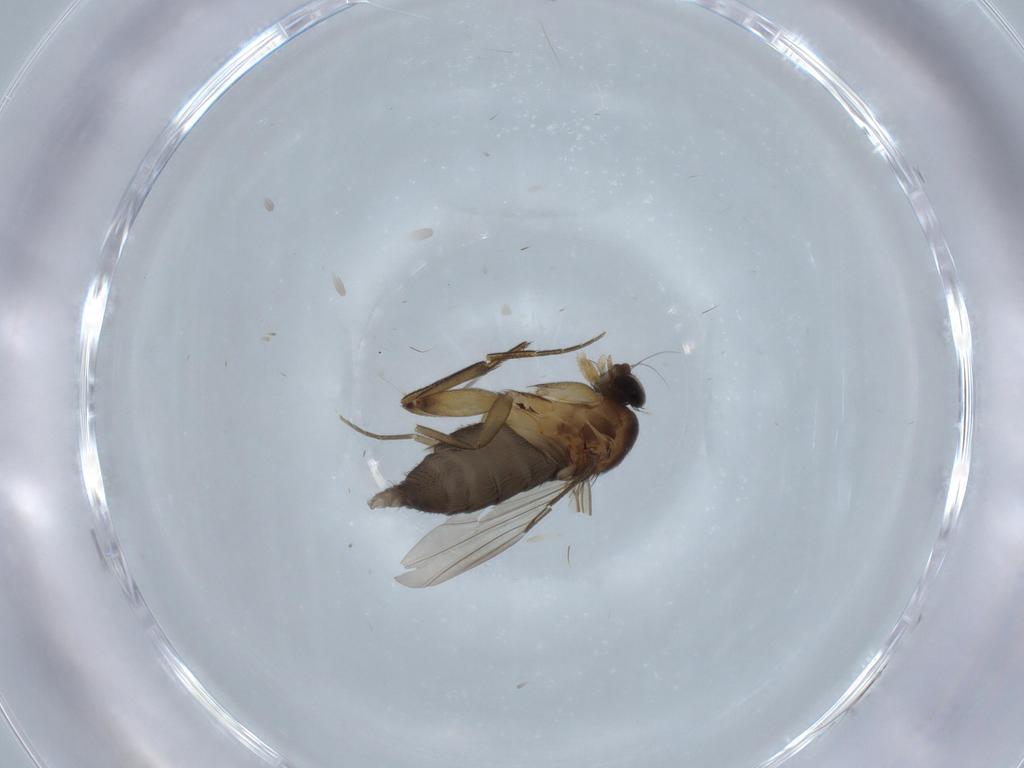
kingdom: Animalia
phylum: Arthropoda
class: Insecta
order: Diptera
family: Phoridae
